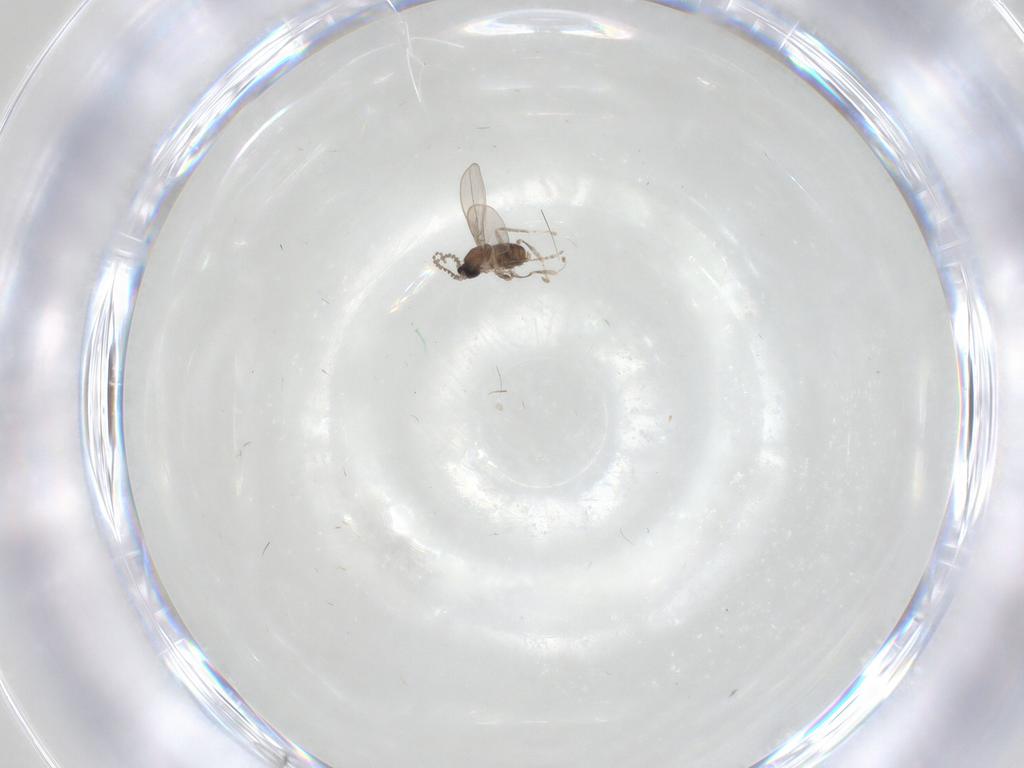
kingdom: Animalia
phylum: Arthropoda
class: Insecta
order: Diptera
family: Cecidomyiidae
